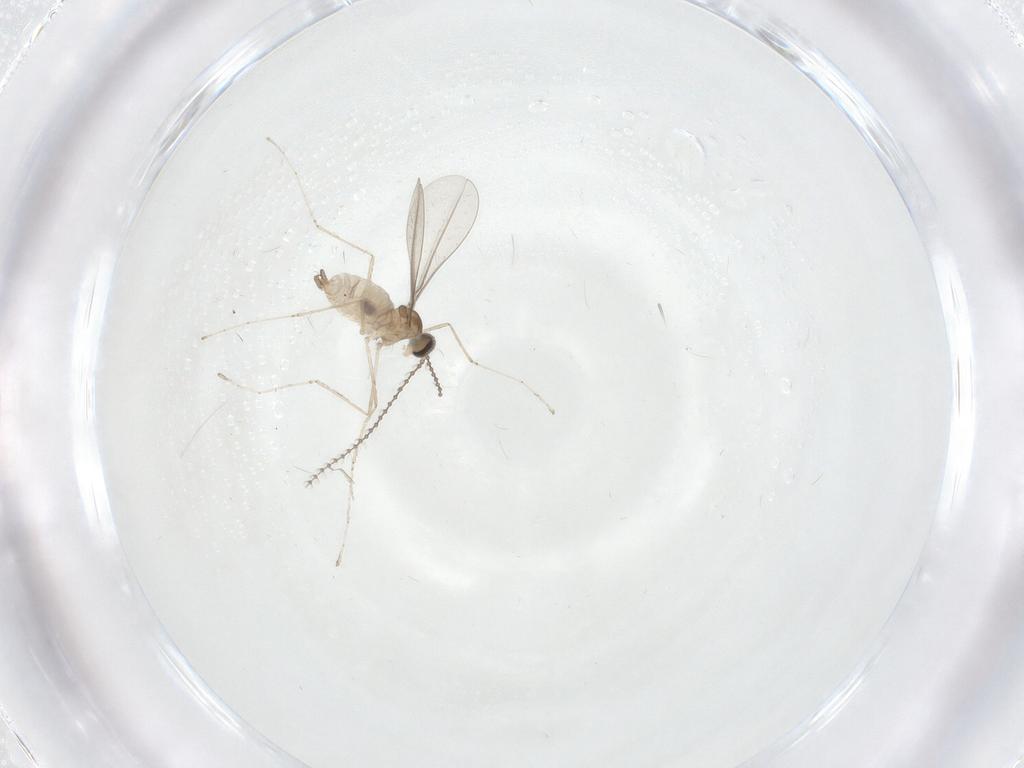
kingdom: Animalia
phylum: Arthropoda
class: Insecta
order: Diptera
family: Cecidomyiidae
